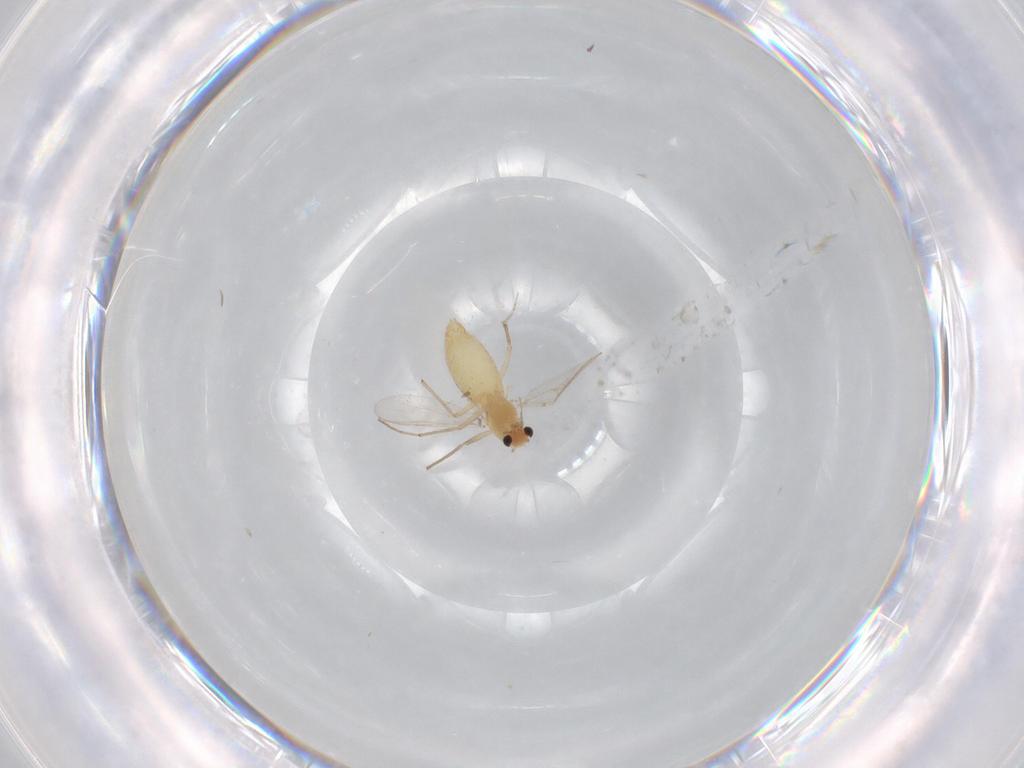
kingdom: Animalia
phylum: Arthropoda
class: Insecta
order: Diptera
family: Chironomidae
